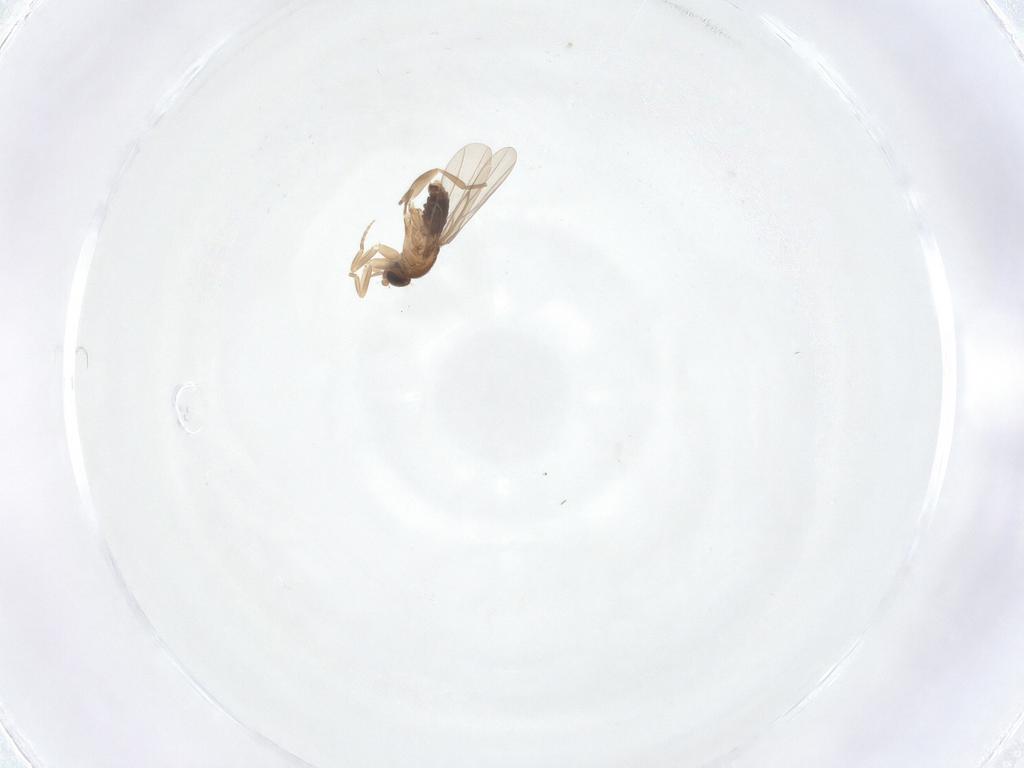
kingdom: Animalia
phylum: Arthropoda
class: Insecta
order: Diptera
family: Phoridae
